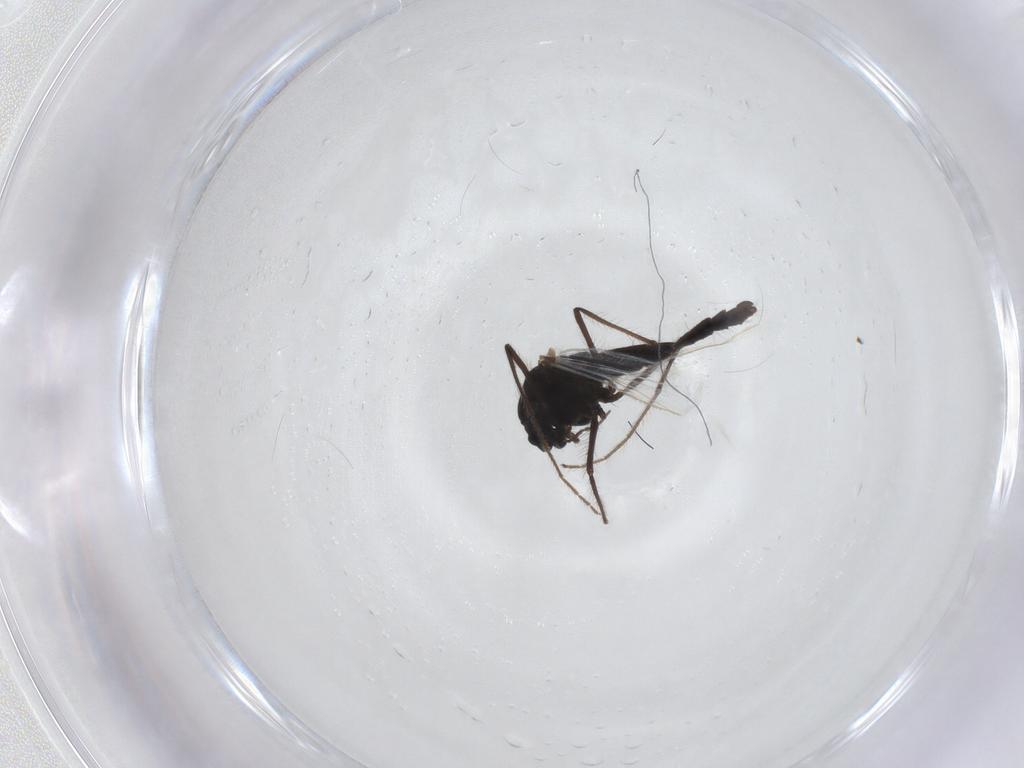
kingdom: Animalia
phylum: Arthropoda
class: Insecta
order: Diptera
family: Chironomidae
